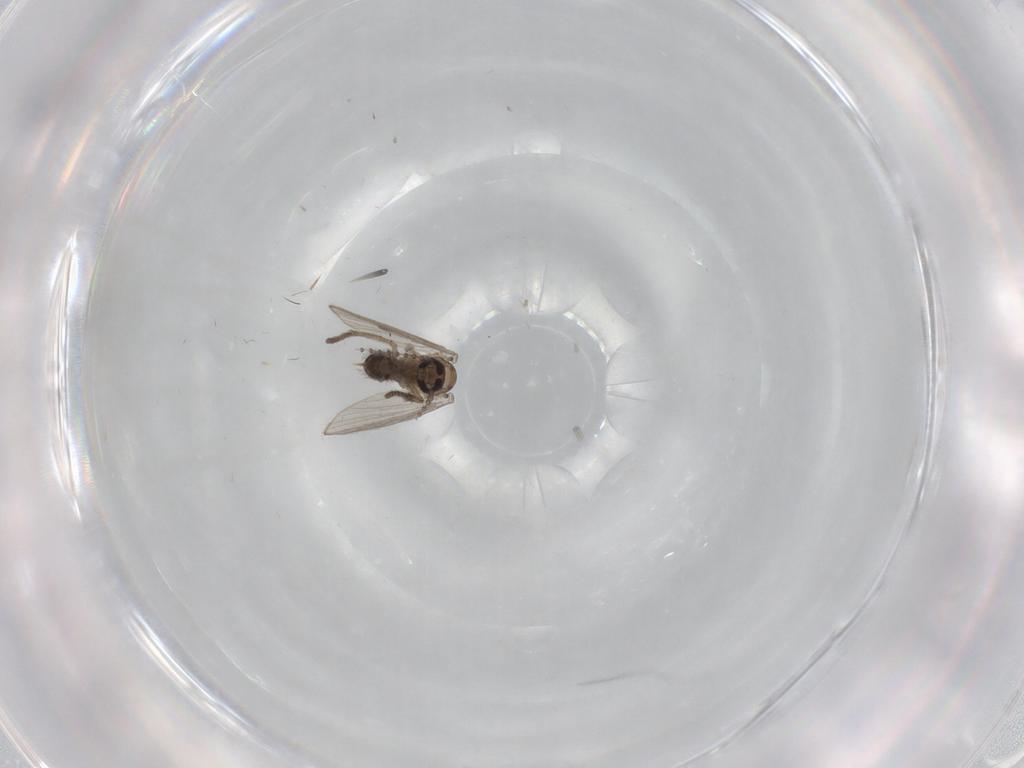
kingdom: Animalia
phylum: Arthropoda
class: Insecta
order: Diptera
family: Psychodidae
